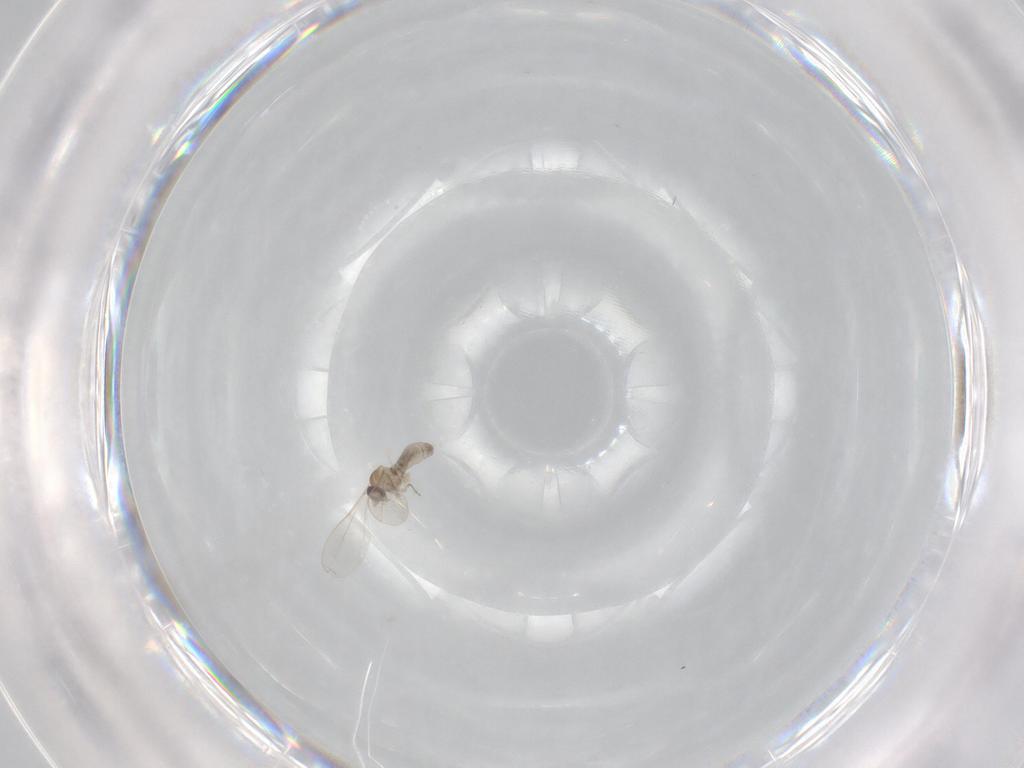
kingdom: Animalia
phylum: Arthropoda
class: Insecta
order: Diptera
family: Cecidomyiidae
